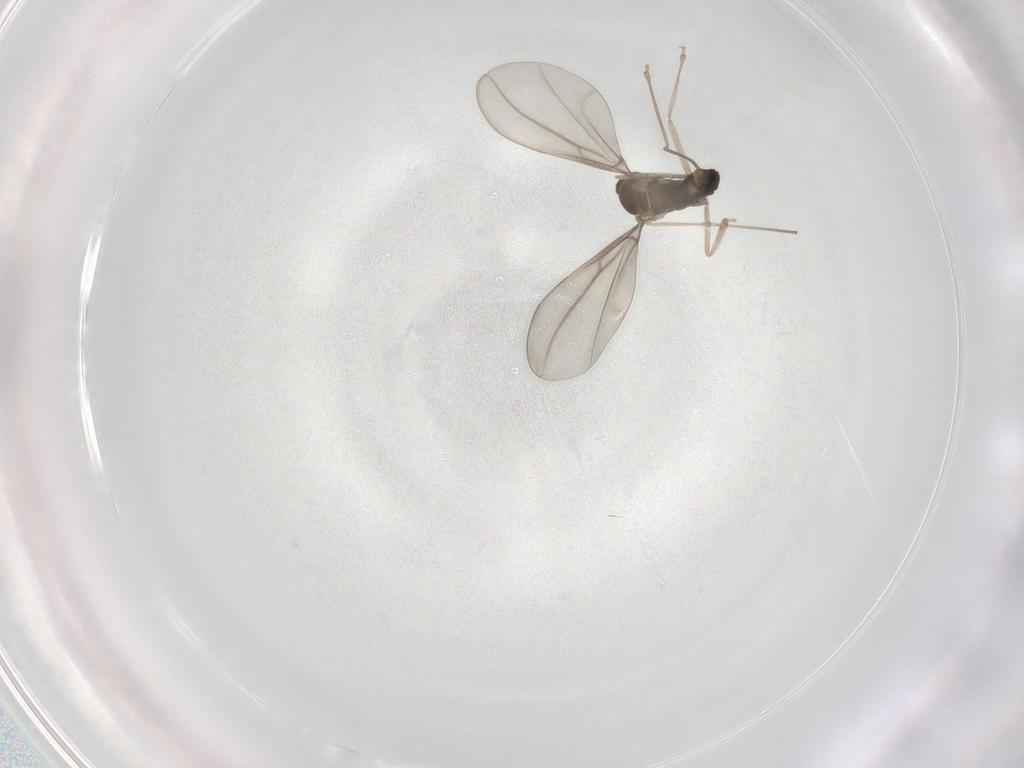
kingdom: Animalia
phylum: Arthropoda
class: Insecta
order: Diptera
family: Cecidomyiidae
